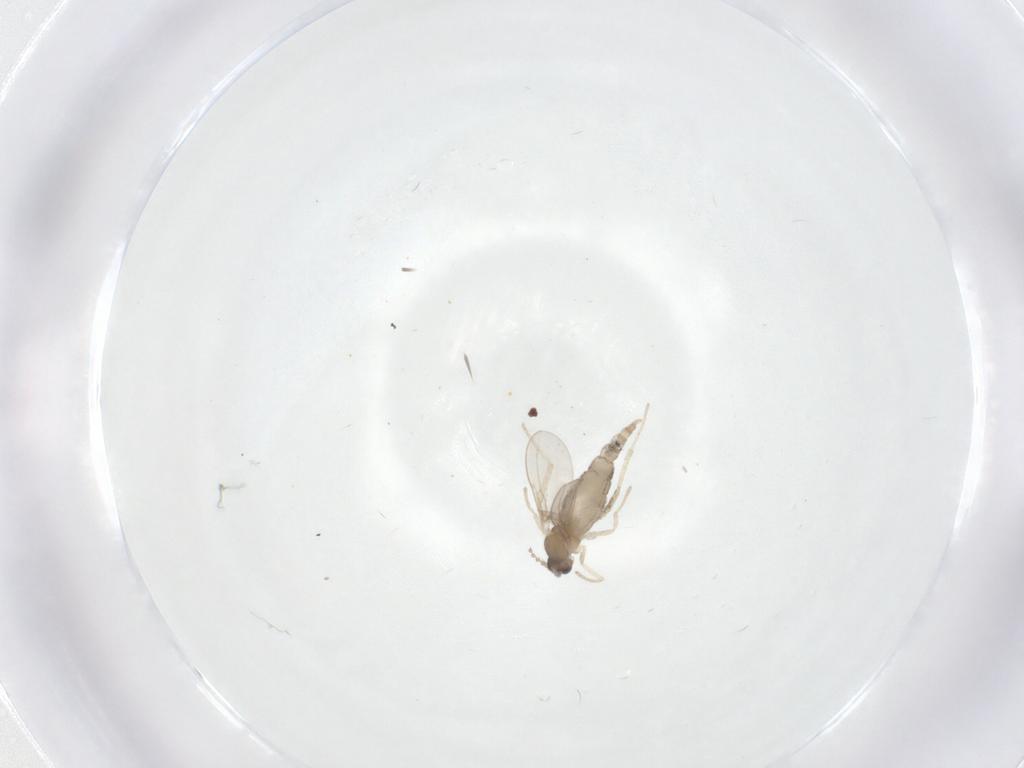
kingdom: Animalia
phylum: Arthropoda
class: Insecta
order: Diptera
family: Cecidomyiidae
